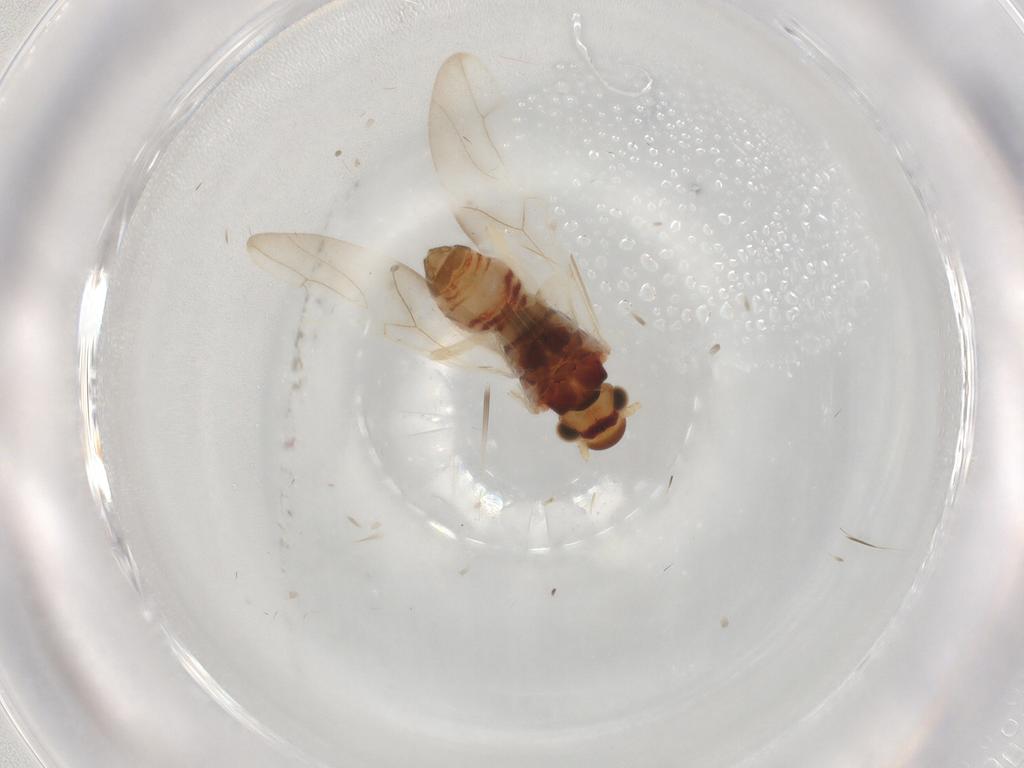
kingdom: Animalia
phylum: Arthropoda
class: Insecta
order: Psocodea
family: Caeciliusidae
